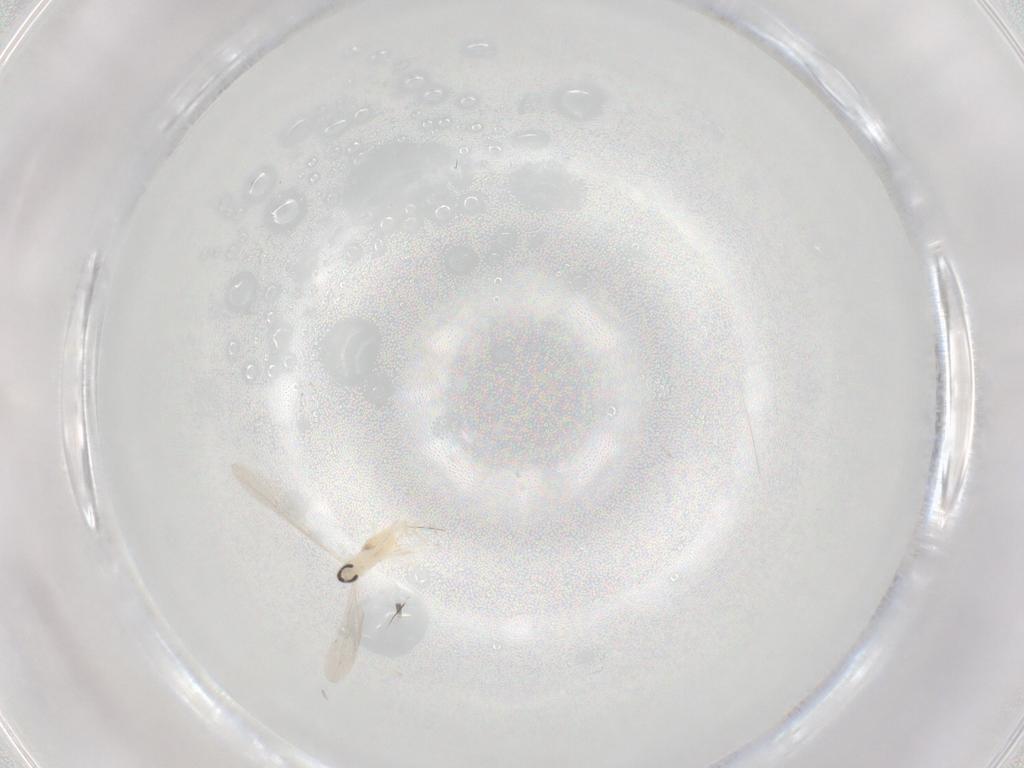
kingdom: Animalia
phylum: Arthropoda
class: Insecta
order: Diptera
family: Cecidomyiidae
